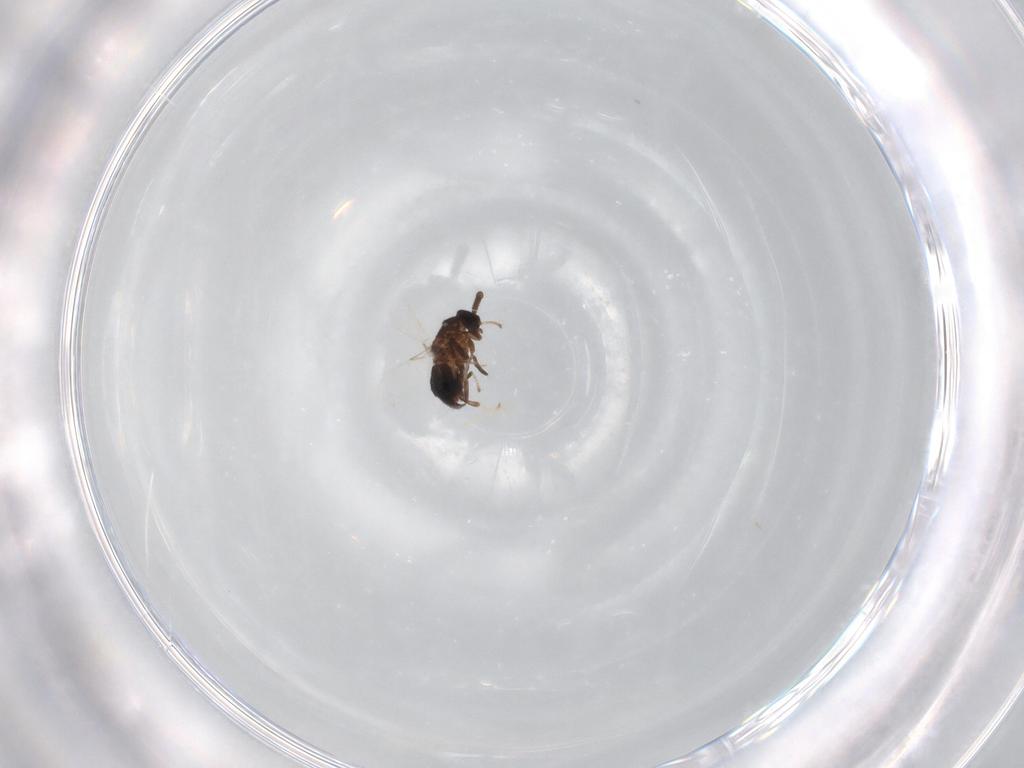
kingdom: Animalia
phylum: Arthropoda
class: Insecta
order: Diptera
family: Scatopsidae
